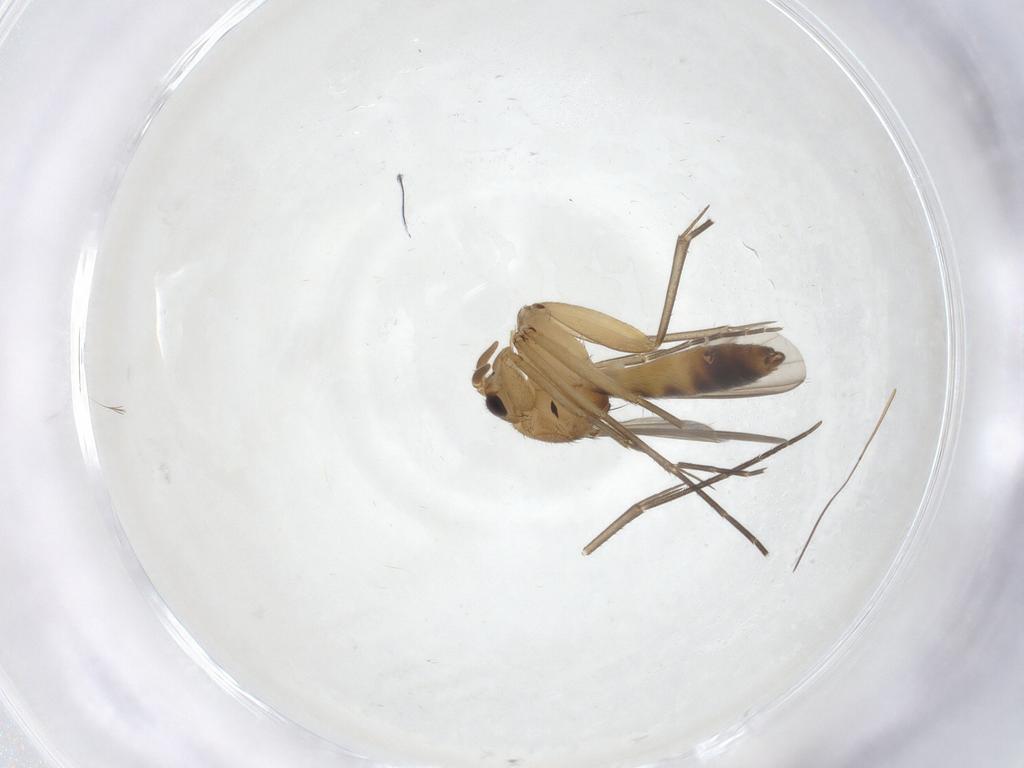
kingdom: Animalia
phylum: Arthropoda
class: Insecta
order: Diptera
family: Mycetophilidae
